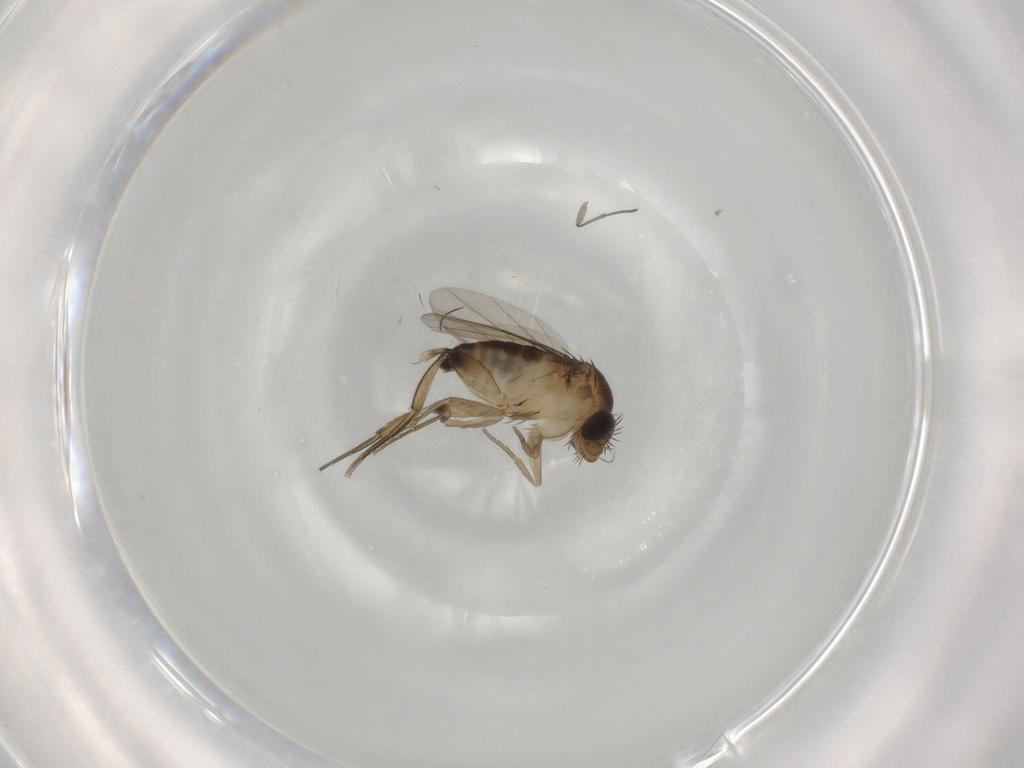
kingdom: Animalia
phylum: Arthropoda
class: Insecta
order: Diptera
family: Phoridae
